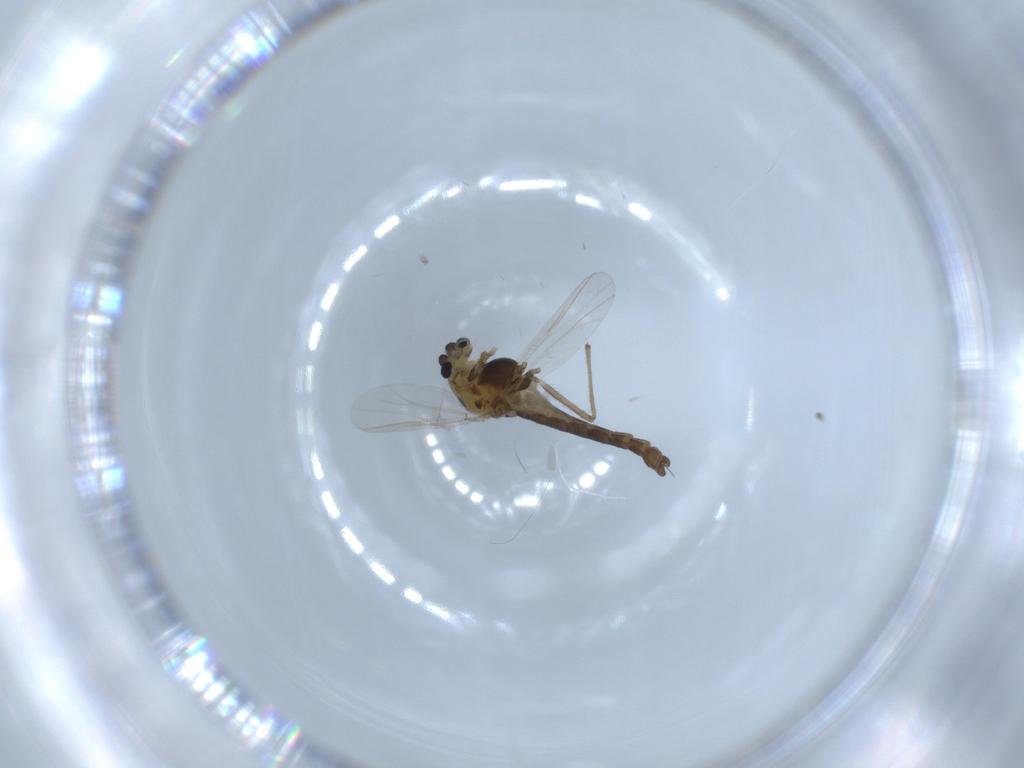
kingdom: Animalia
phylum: Arthropoda
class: Insecta
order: Diptera
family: Chironomidae
